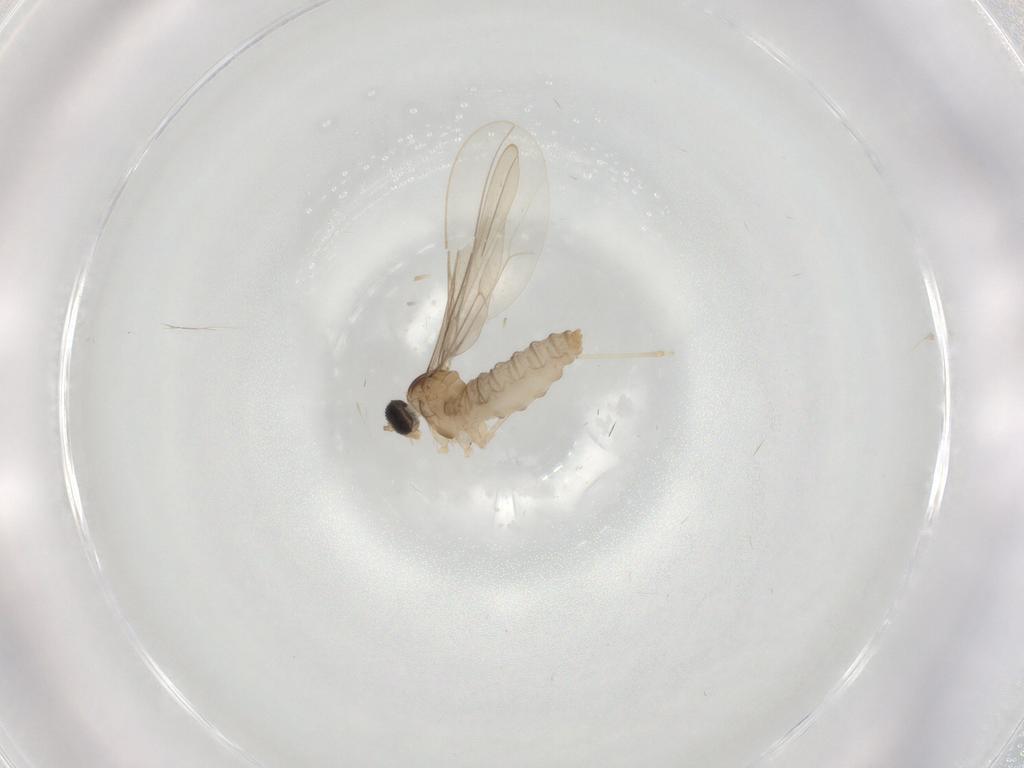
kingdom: Animalia
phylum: Arthropoda
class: Insecta
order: Diptera
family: Cecidomyiidae
